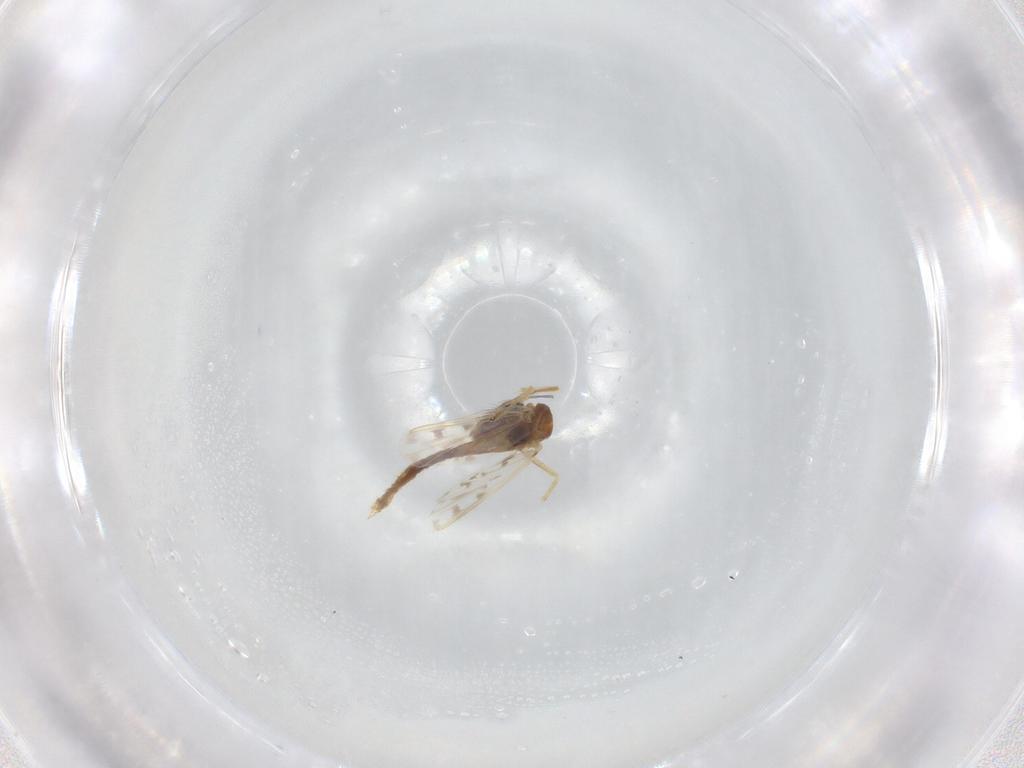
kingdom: Animalia
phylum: Arthropoda
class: Insecta
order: Diptera
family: Chironomidae
